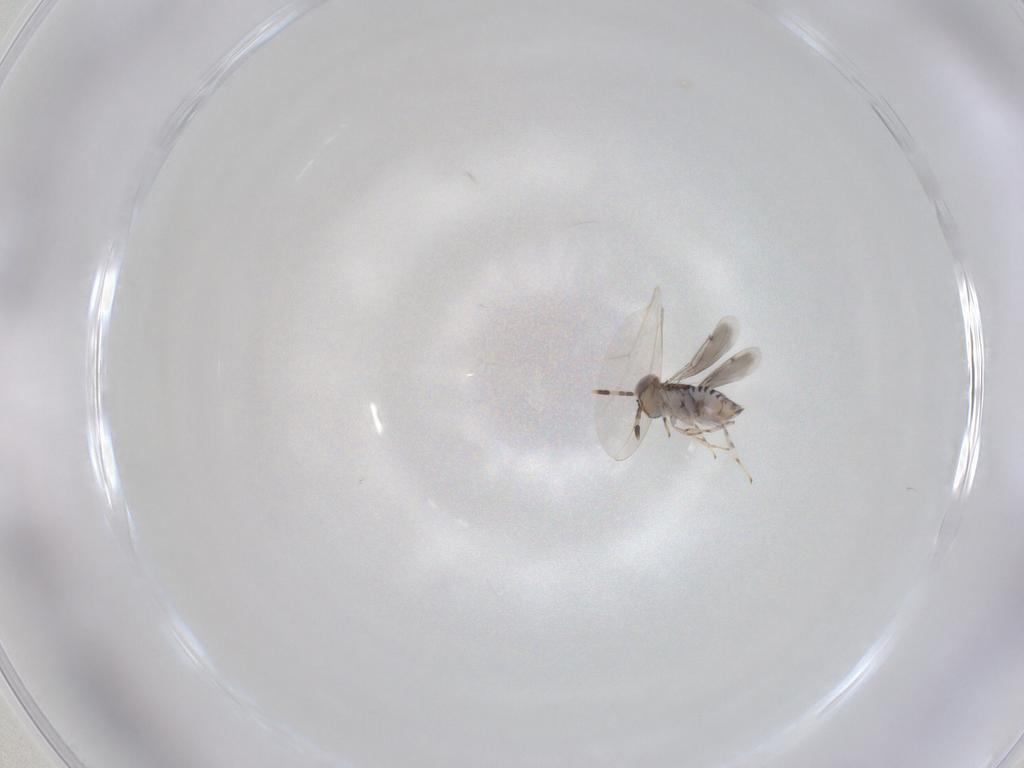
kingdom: Animalia
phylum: Arthropoda
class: Insecta
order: Hymenoptera
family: Aphelinidae
